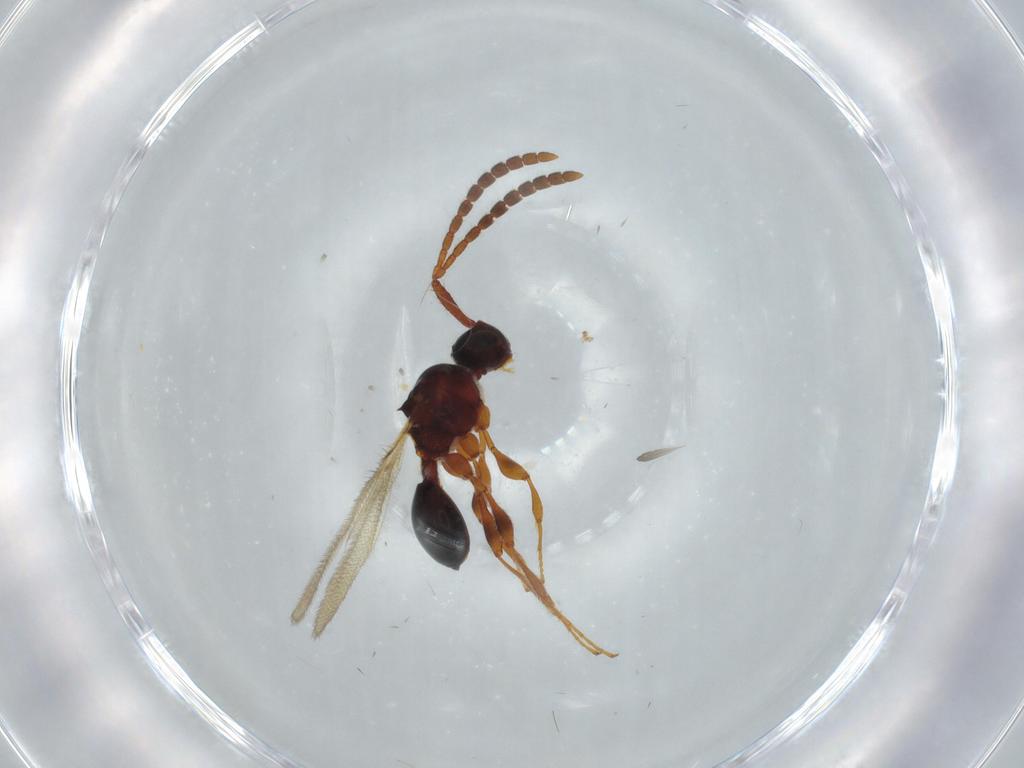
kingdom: Animalia
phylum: Arthropoda
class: Insecta
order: Hymenoptera
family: Diapriidae
